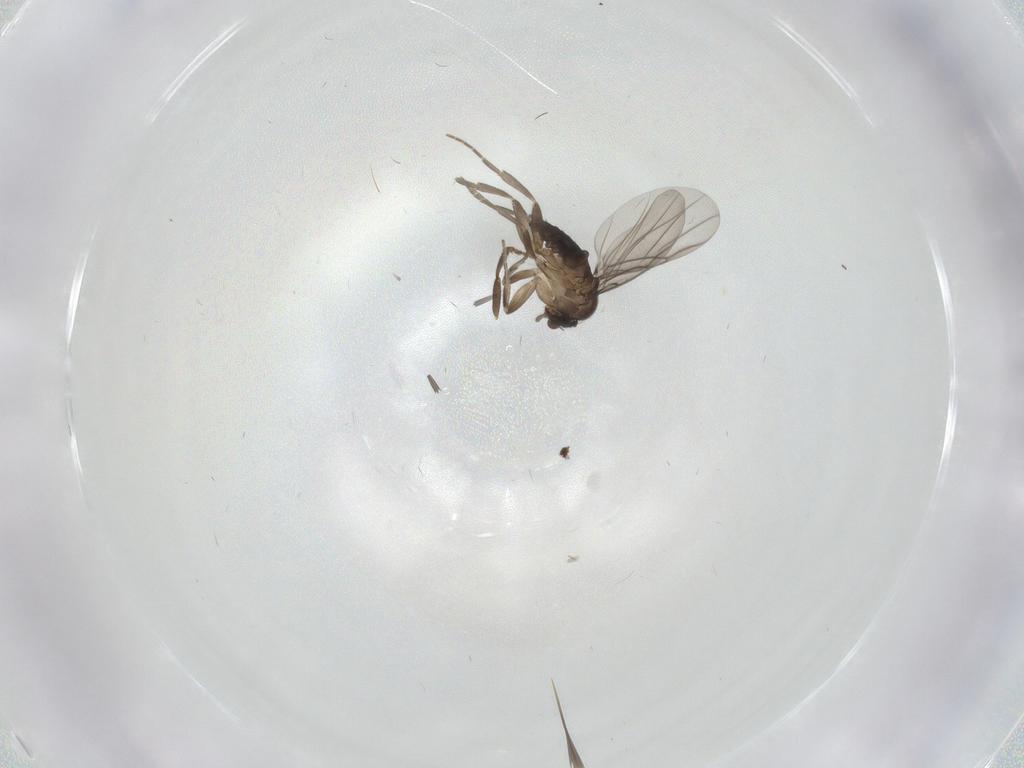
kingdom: Animalia
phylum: Arthropoda
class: Insecta
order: Diptera
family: Sphaeroceridae
